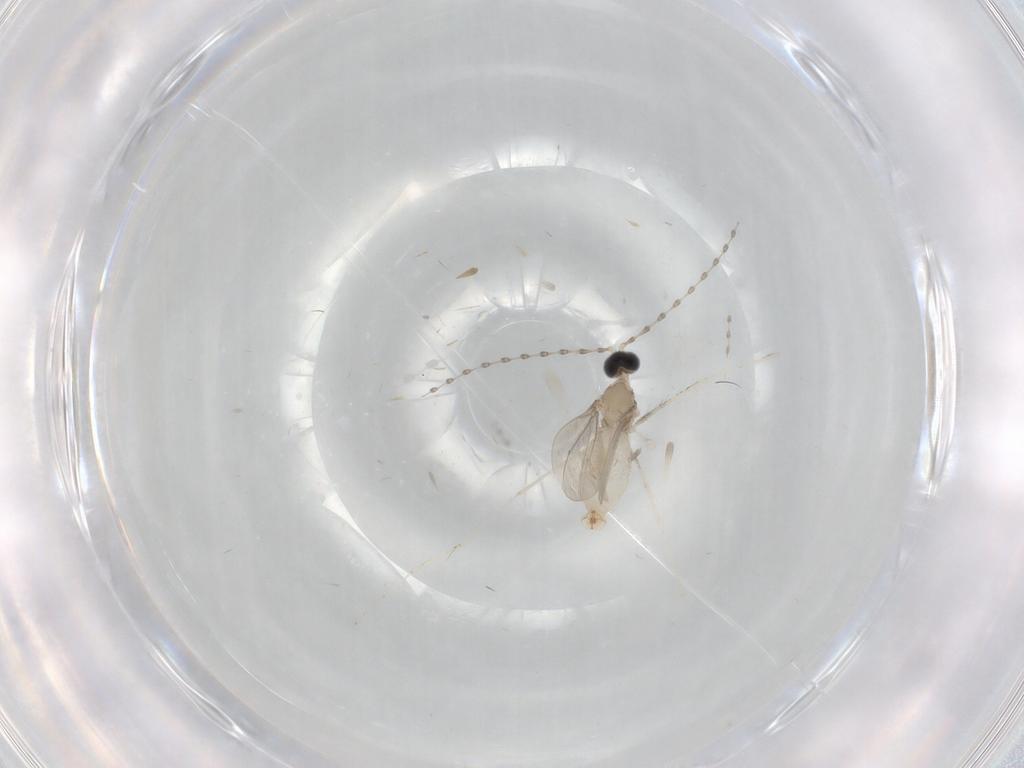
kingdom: Animalia
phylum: Arthropoda
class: Insecta
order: Diptera
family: Cecidomyiidae
